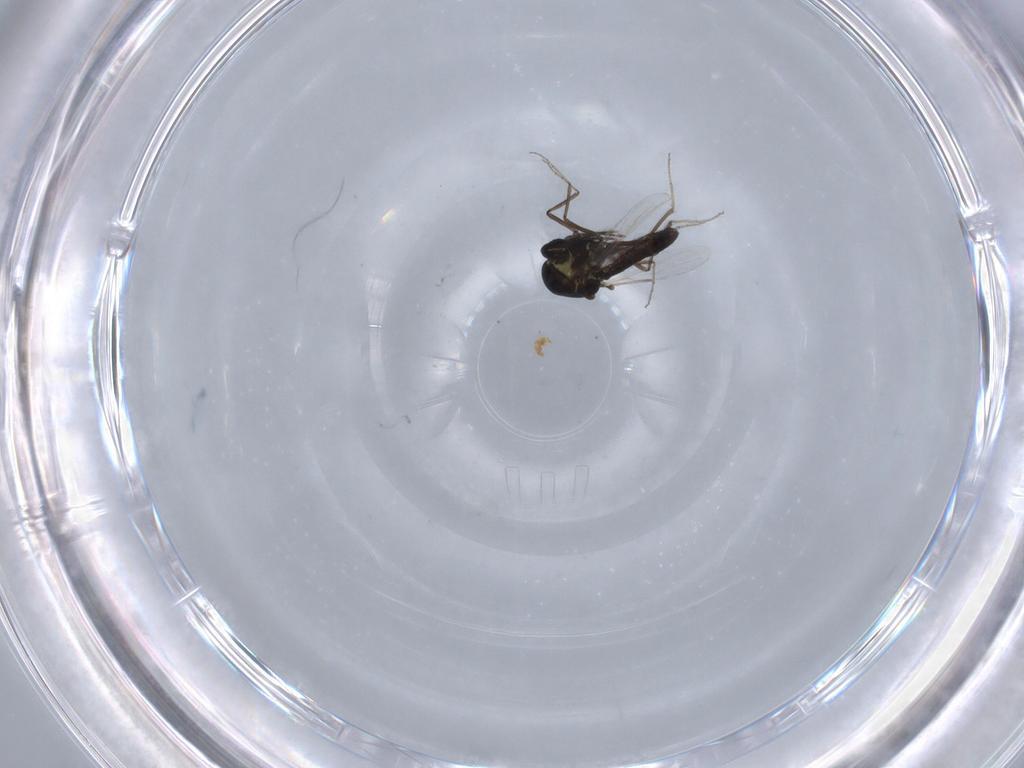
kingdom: Animalia
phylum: Arthropoda
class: Insecta
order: Diptera
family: Ceratopogonidae
